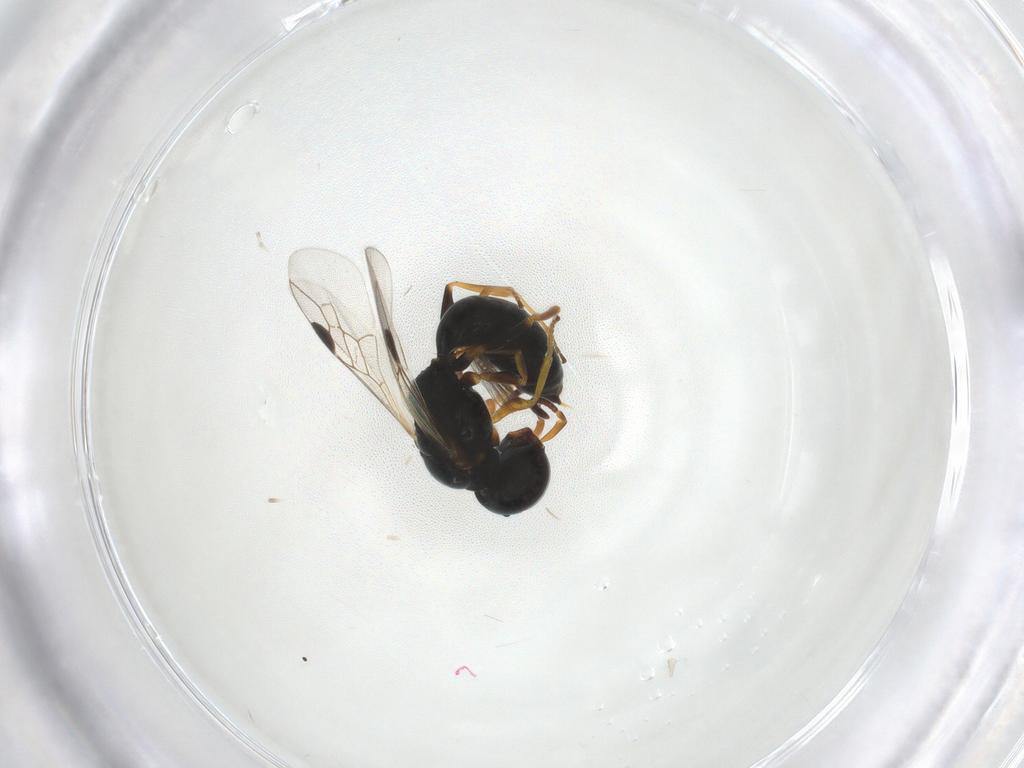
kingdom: Animalia
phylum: Arthropoda
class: Insecta
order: Hymenoptera
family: Pemphredonidae
